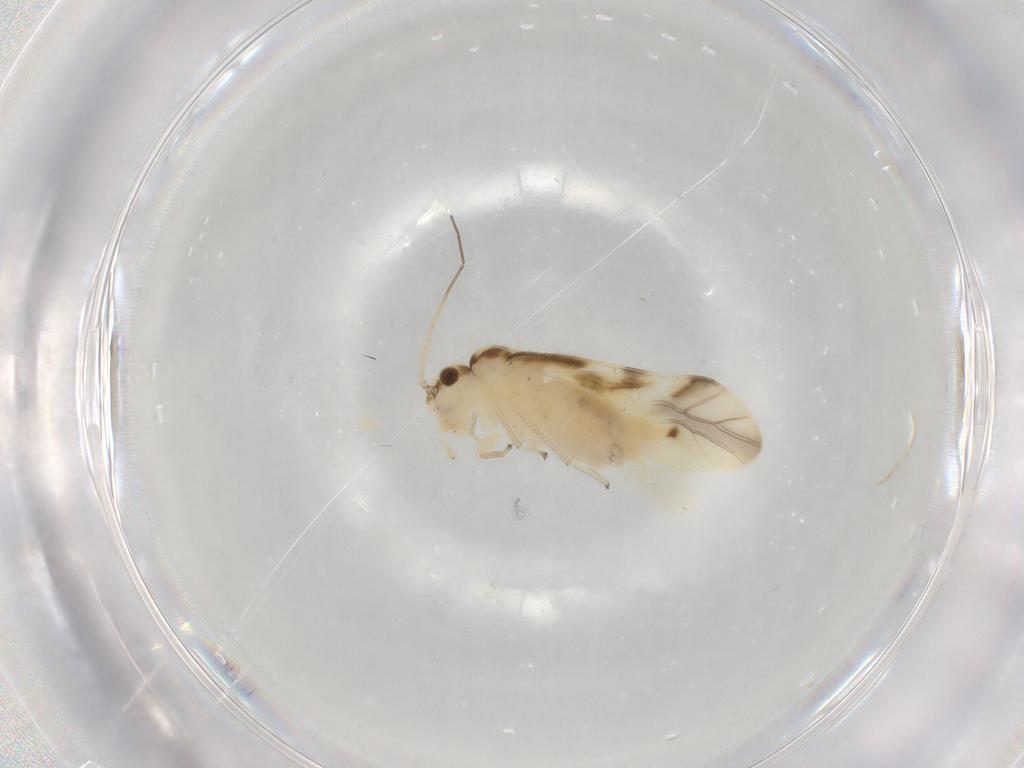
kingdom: Animalia
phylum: Arthropoda
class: Insecta
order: Psocodea
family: Caeciliusidae
